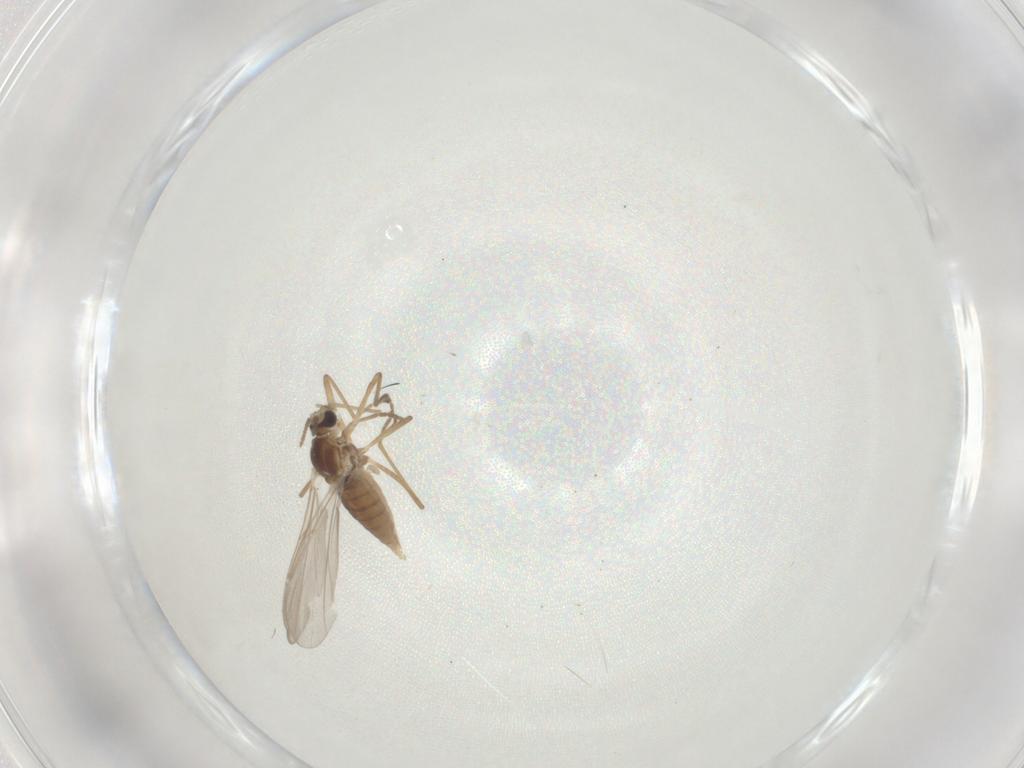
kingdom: Animalia
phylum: Arthropoda
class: Insecta
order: Diptera
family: Cecidomyiidae
